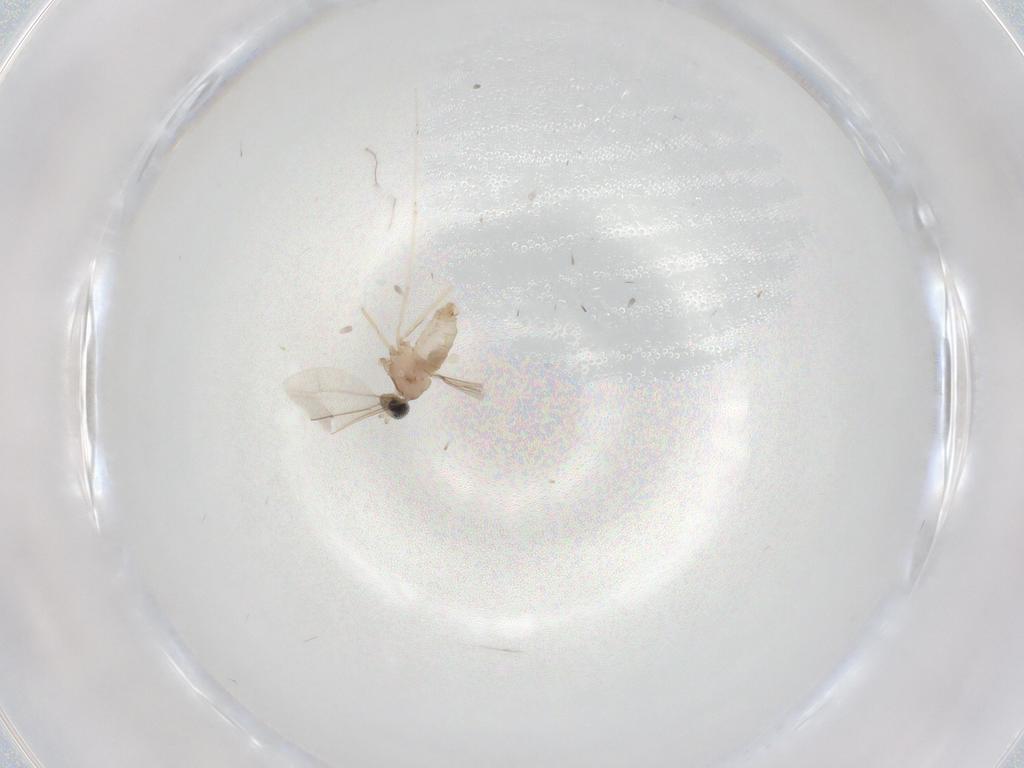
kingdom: Animalia
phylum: Arthropoda
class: Insecta
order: Diptera
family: Cecidomyiidae
